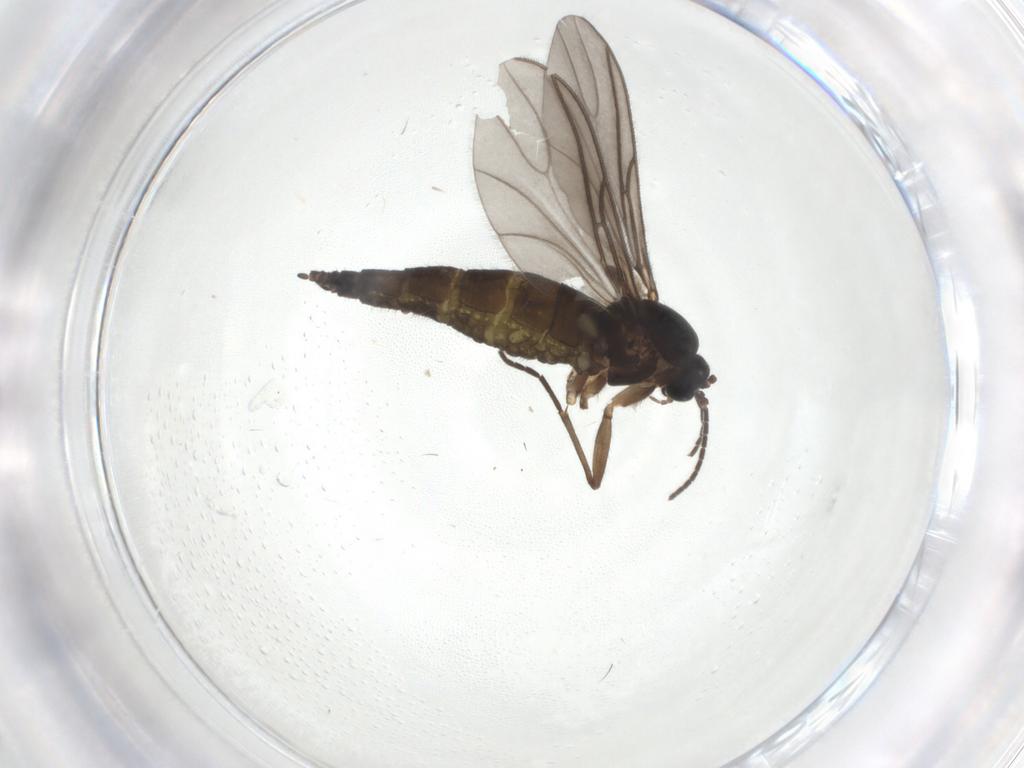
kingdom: Animalia
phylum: Arthropoda
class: Insecta
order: Diptera
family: Sciaridae
